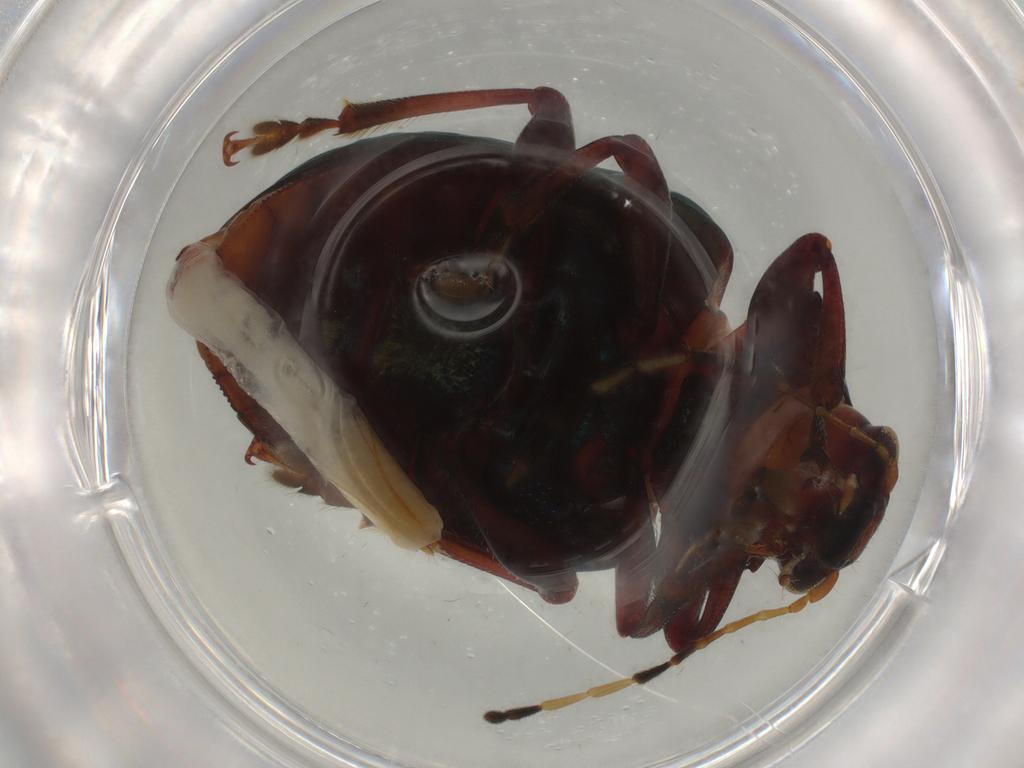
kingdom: Animalia
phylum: Arthropoda
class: Insecta
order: Coleoptera
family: Chrysomelidae
